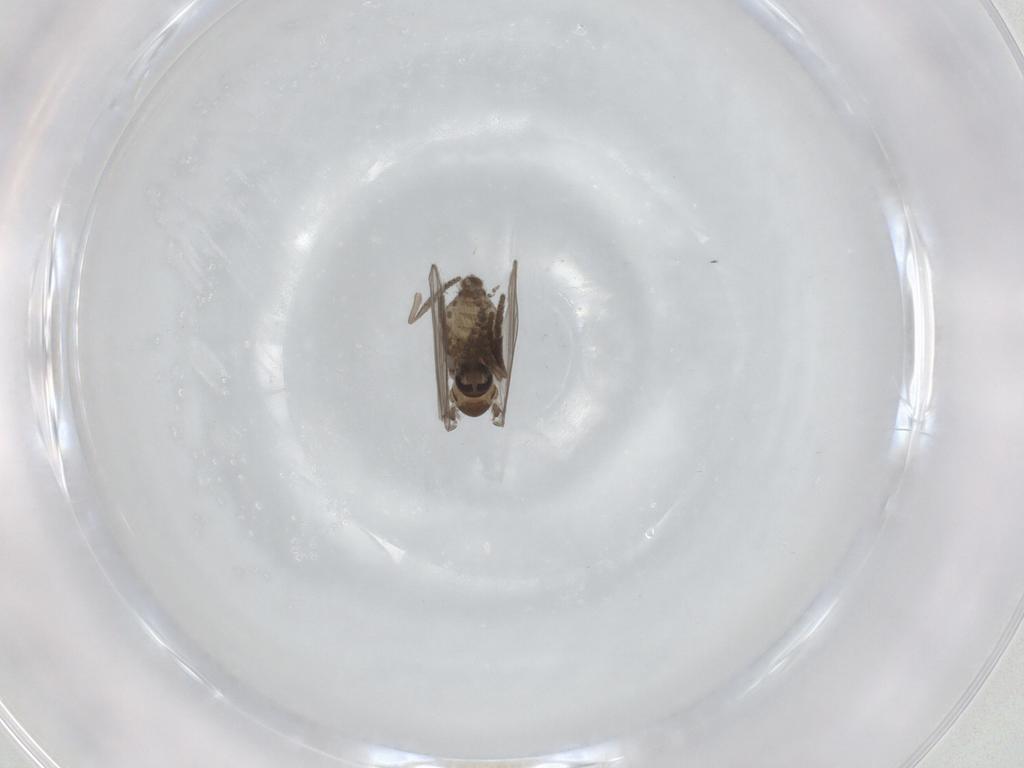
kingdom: Animalia
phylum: Arthropoda
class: Insecta
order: Diptera
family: Psychodidae
